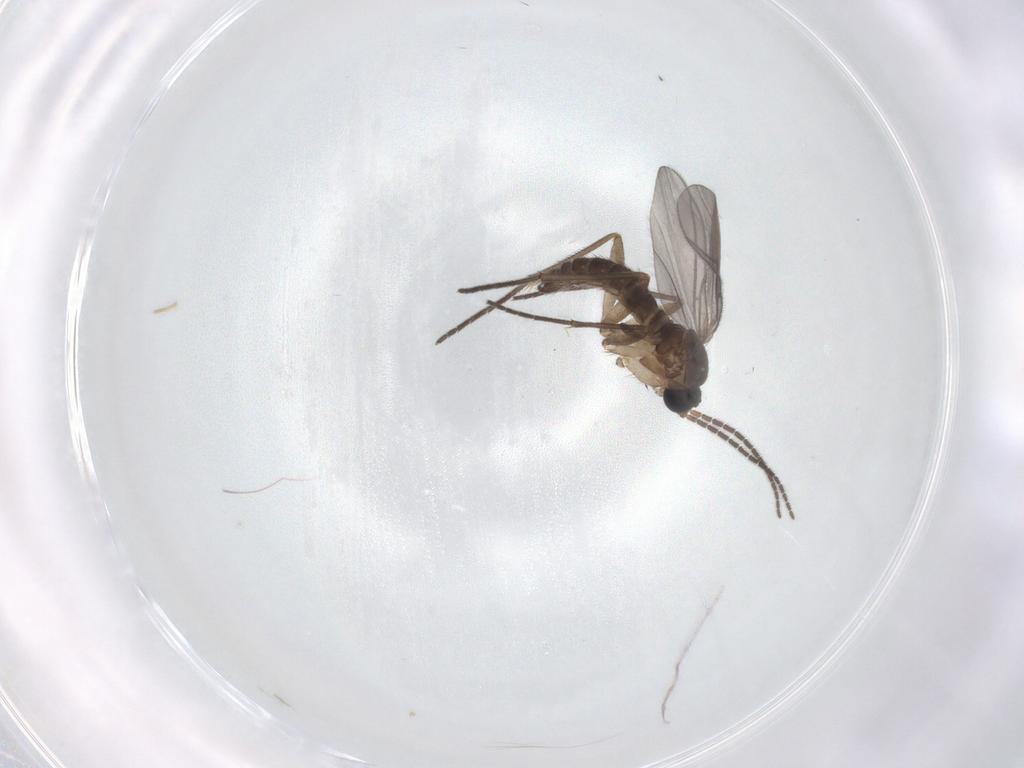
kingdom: Animalia
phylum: Arthropoda
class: Insecta
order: Diptera
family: Sciaridae
